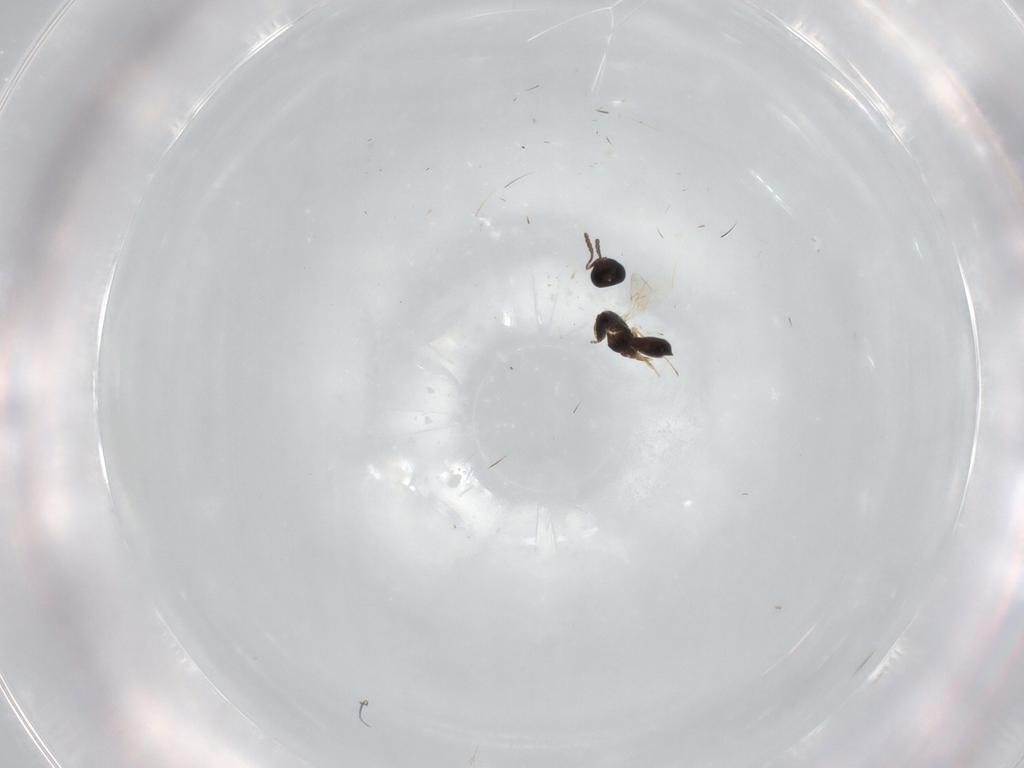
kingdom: Animalia
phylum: Arthropoda
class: Insecta
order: Hymenoptera
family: Scelionidae
